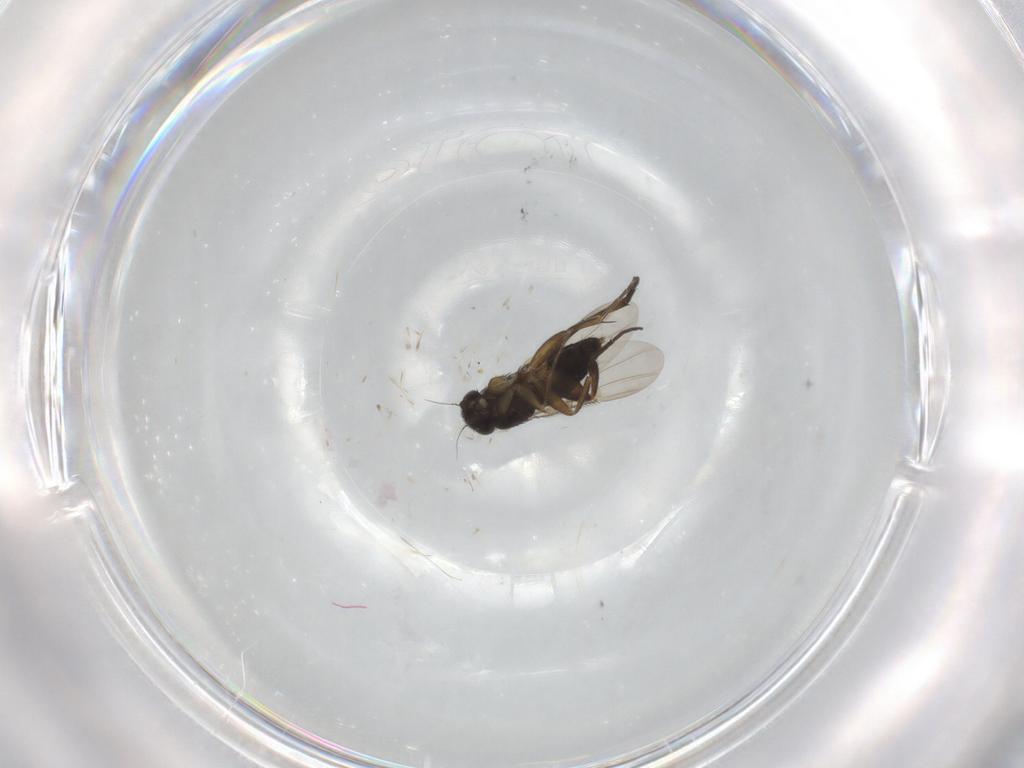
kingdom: Animalia
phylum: Arthropoda
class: Insecta
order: Diptera
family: Phoridae
